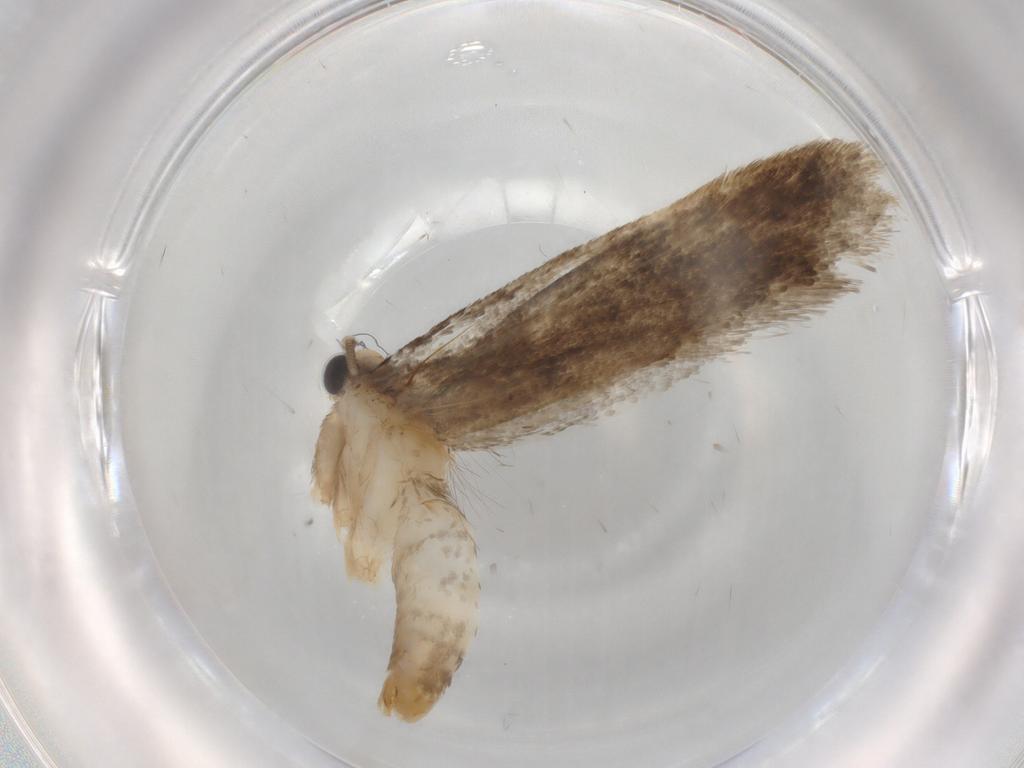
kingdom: Animalia
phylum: Arthropoda
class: Insecta
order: Lepidoptera
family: Tineidae
